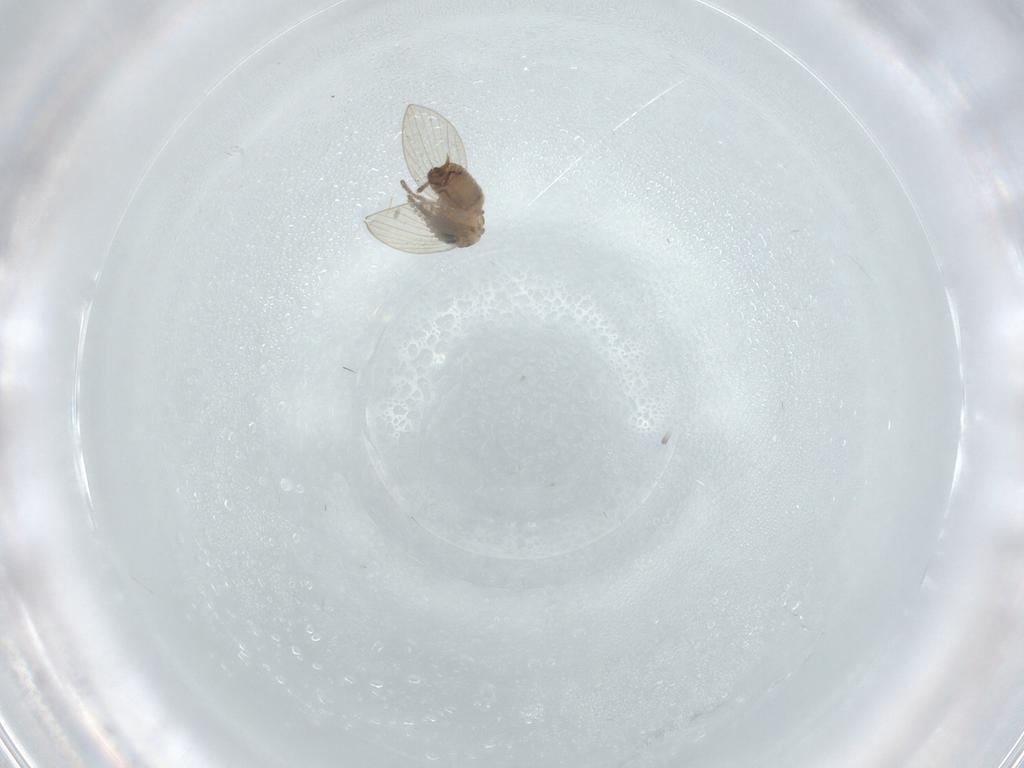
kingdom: Animalia
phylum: Arthropoda
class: Insecta
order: Diptera
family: Psychodidae
